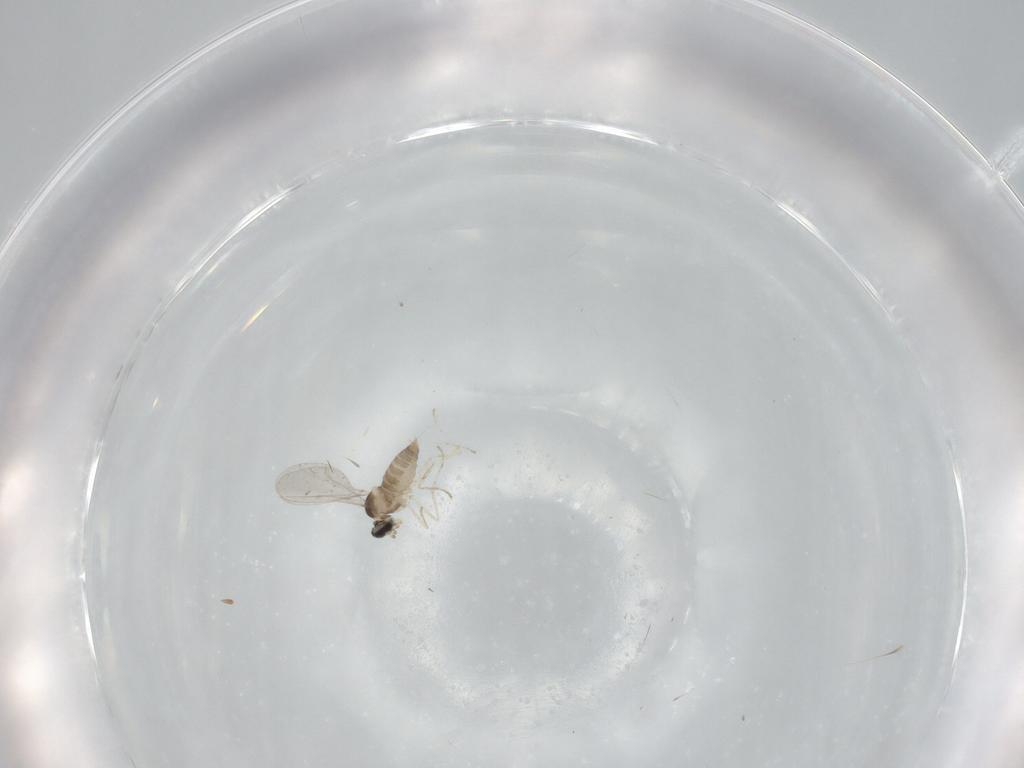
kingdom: Animalia
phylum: Arthropoda
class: Insecta
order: Diptera
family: Cecidomyiidae
